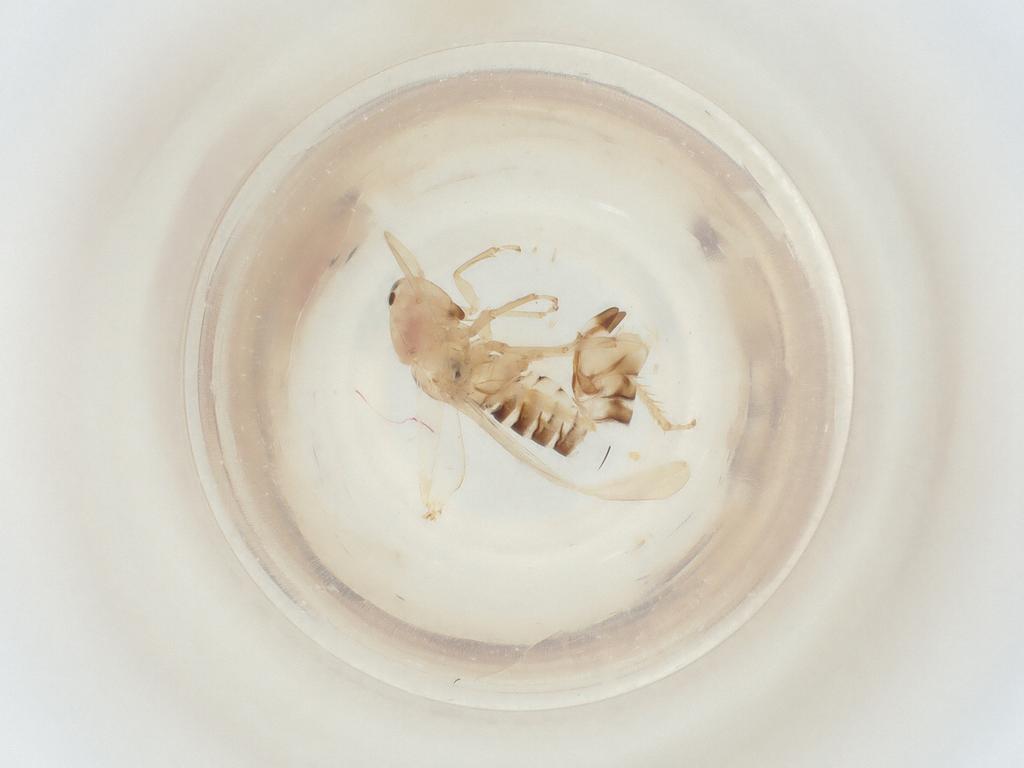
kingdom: Animalia
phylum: Arthropoda
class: Insecta
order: Hemiptera
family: Cicadellidae
